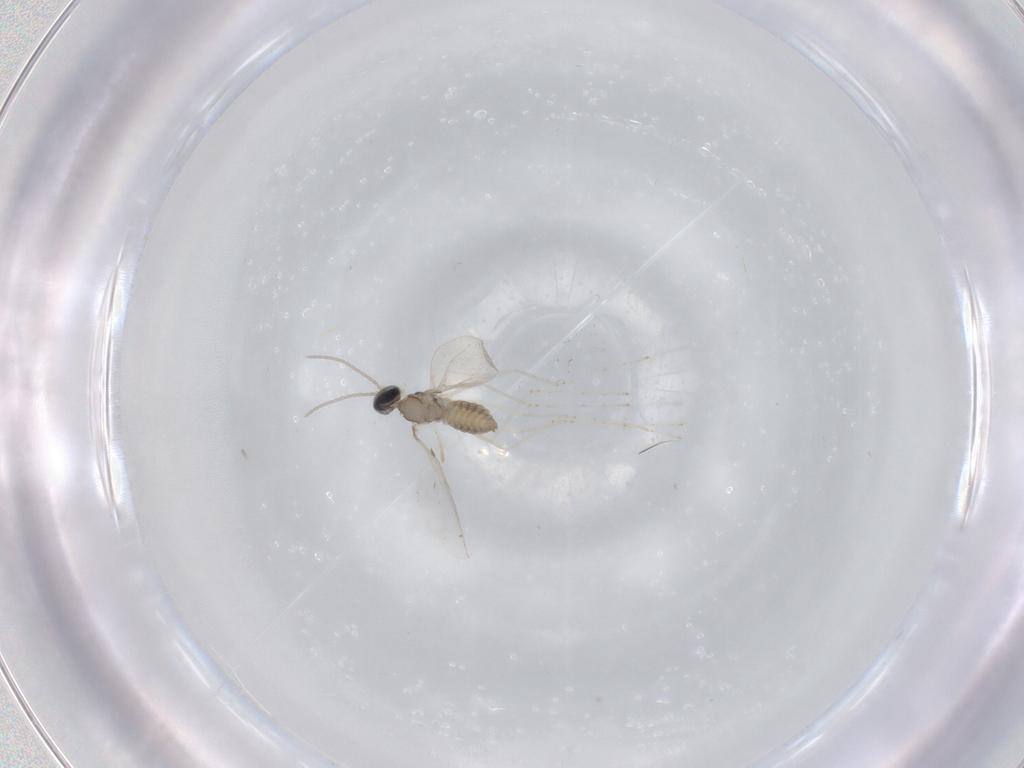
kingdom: Animalia
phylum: Arthropoda
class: Insecta
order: Diptera
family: Cecidomyiidae
